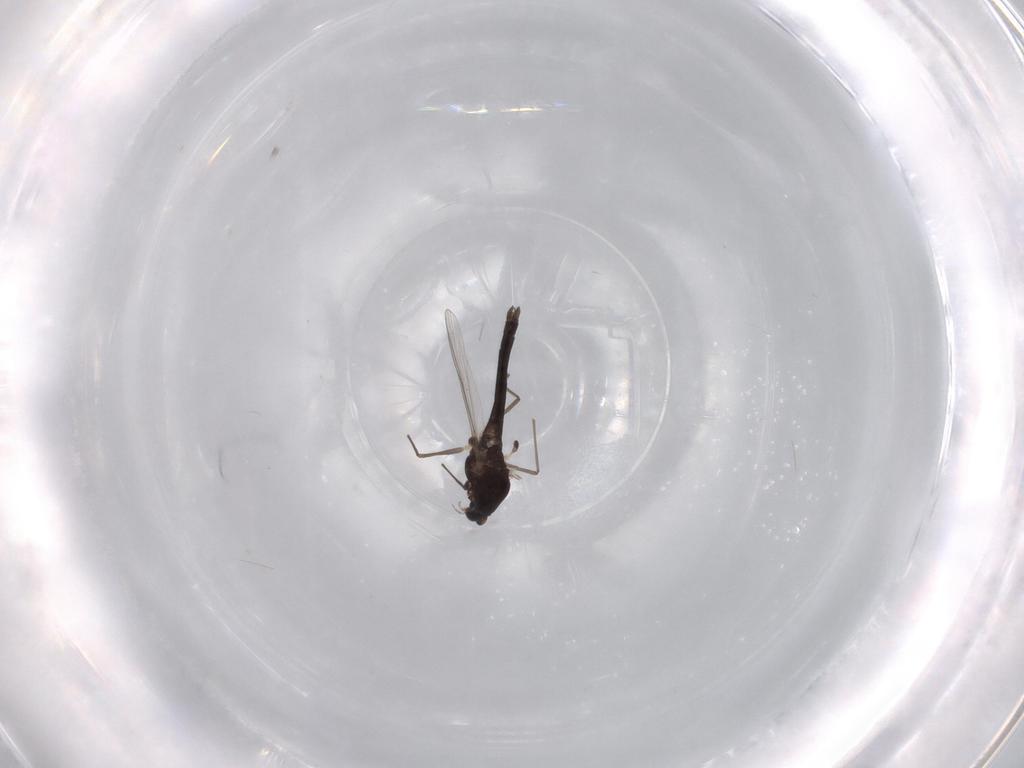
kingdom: Animalia
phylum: Arthropoda
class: Insecta
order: Diptera
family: Chironomidae
